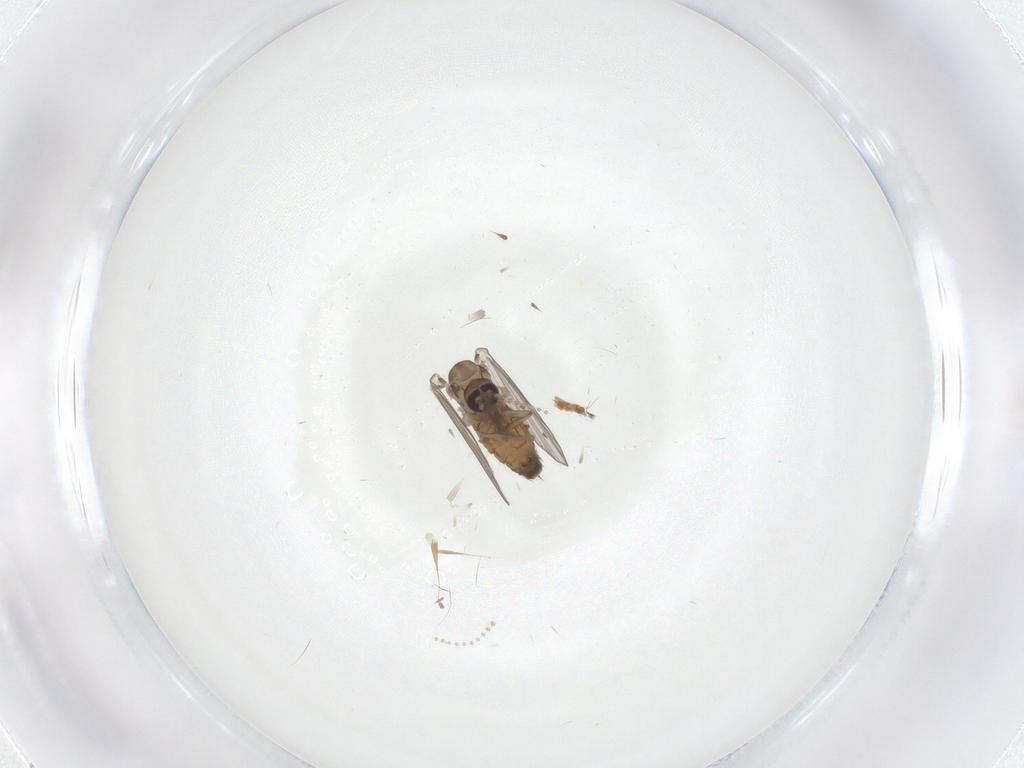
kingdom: Animalia
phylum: Arthropoda
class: Insecta
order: Diptera
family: Psychodidae
